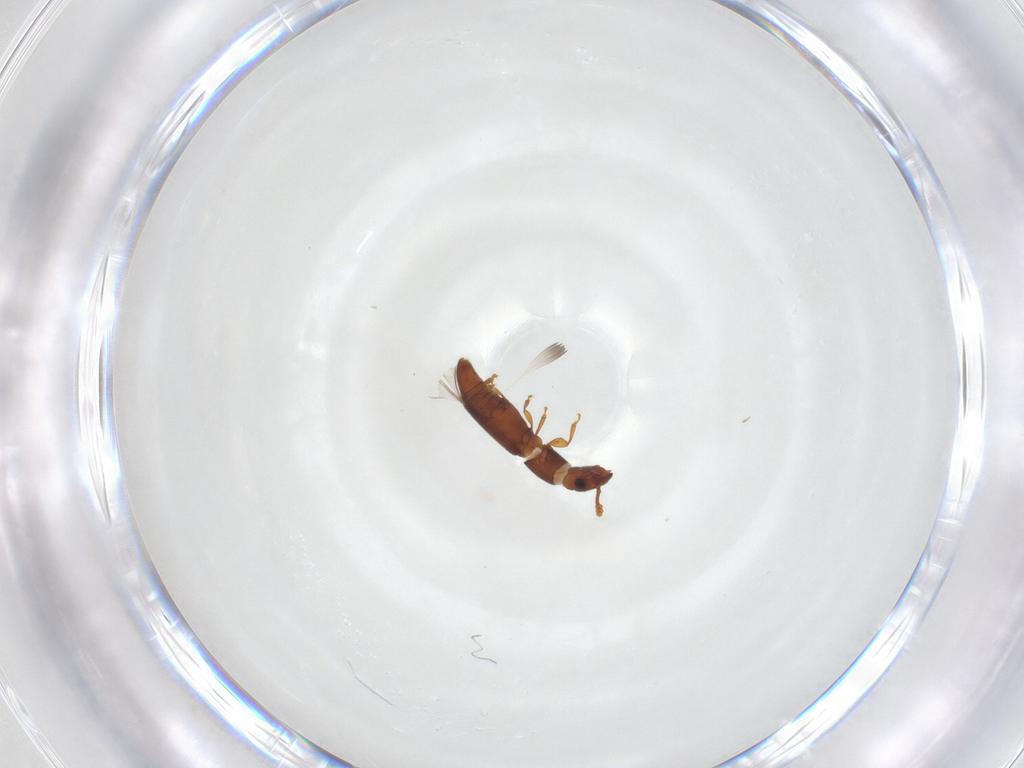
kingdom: Animalia
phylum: Arthropoda
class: Insecta
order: Coleoptera
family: Smicripidae
